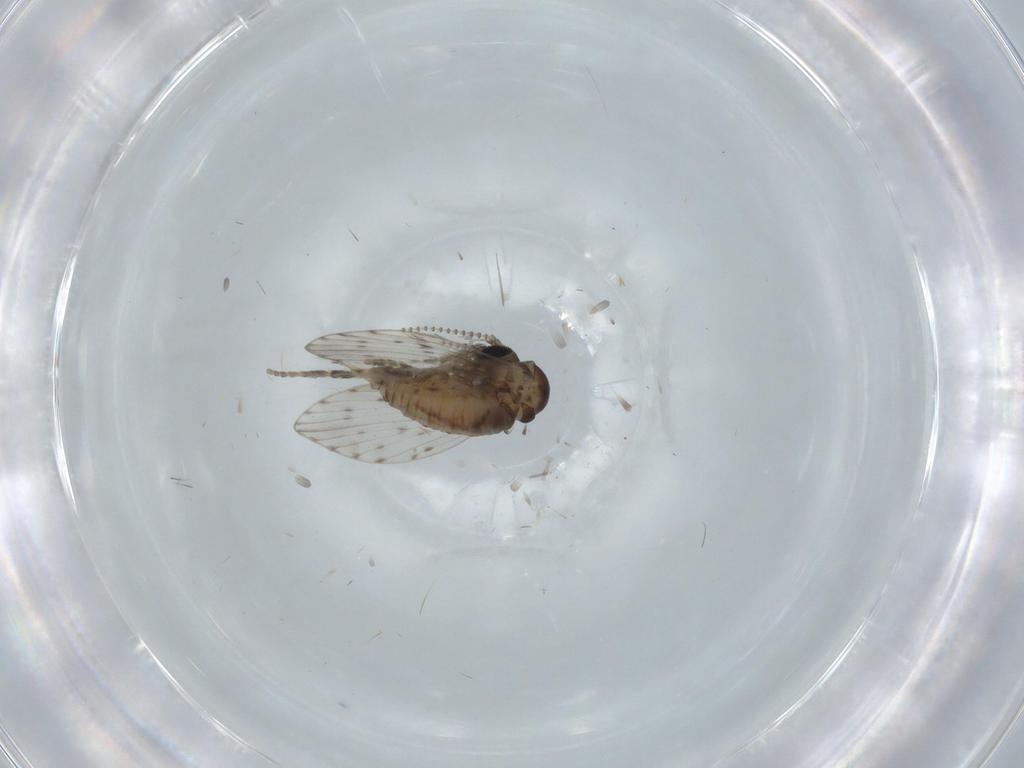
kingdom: Animalia
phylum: Arthropoda
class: Insecta
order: Diptera
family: Psychodidae
